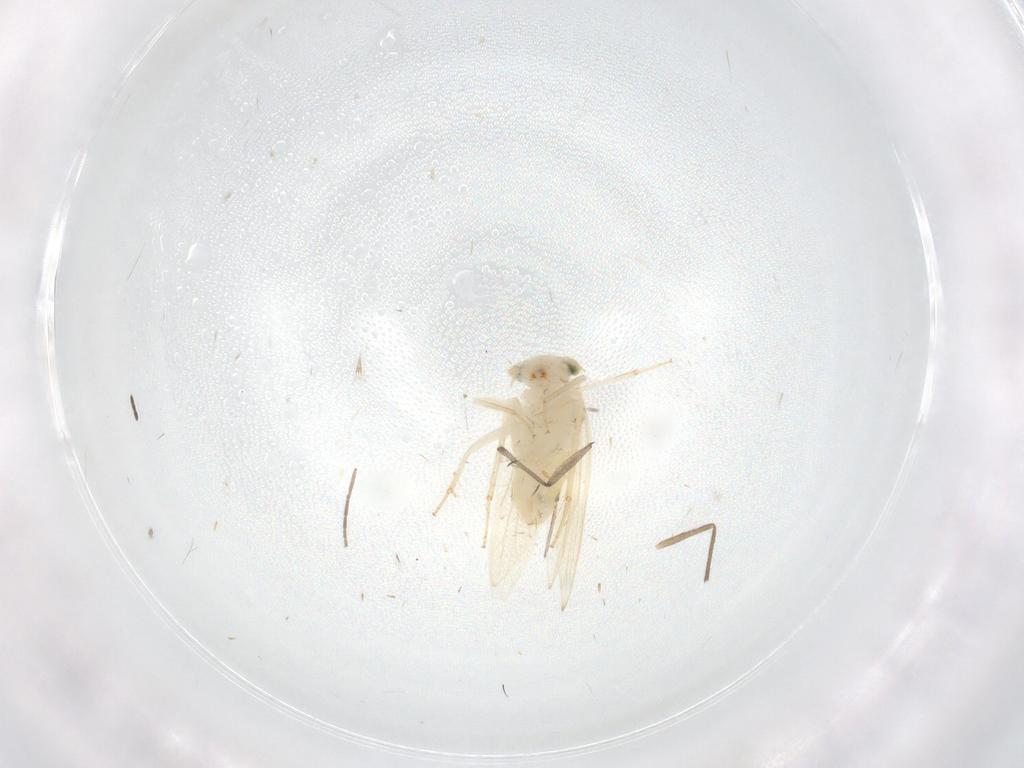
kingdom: Animalia
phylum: Arthropoda
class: Insecta
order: Psocodea
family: Lepidopsocidae
